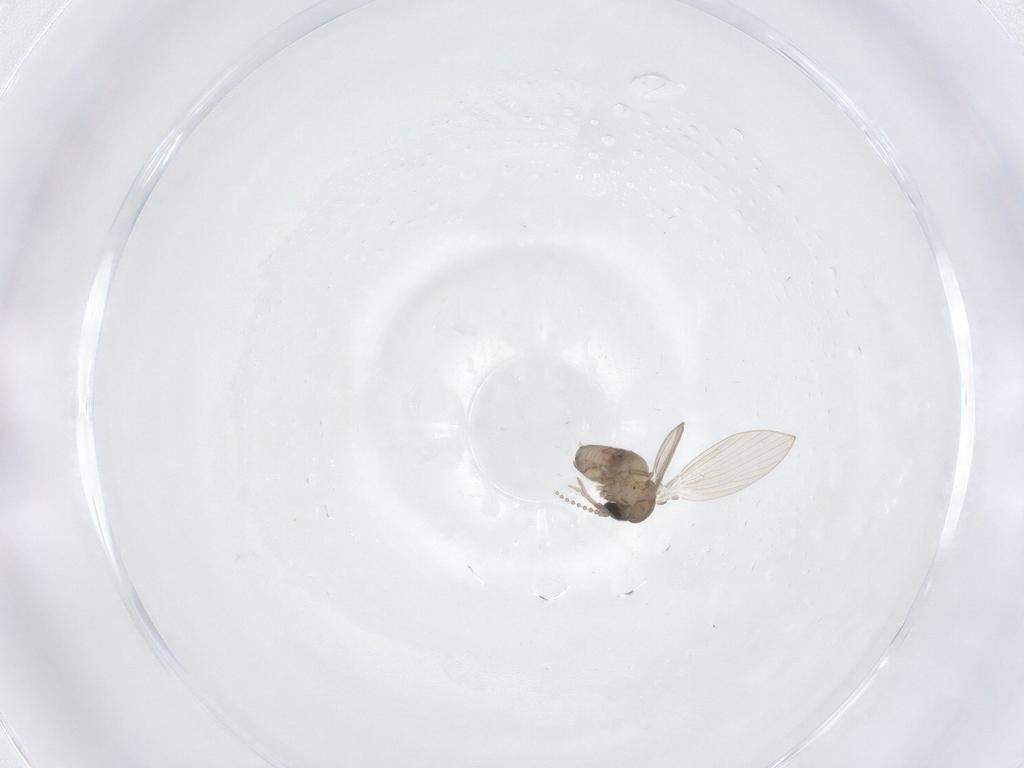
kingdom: Animalia
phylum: Arthropoda
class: Insecta
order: Diptera
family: Psychodidae
